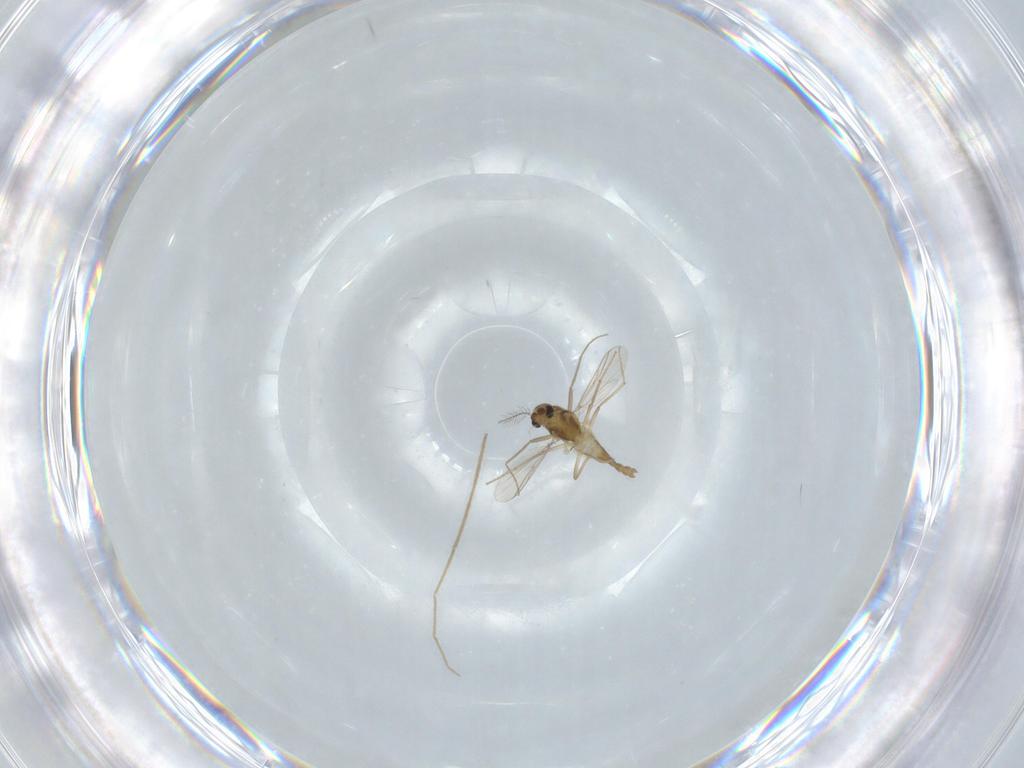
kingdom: Animalia
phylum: Arthropoda
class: Insecta
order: Diptera
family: Chironomidae
